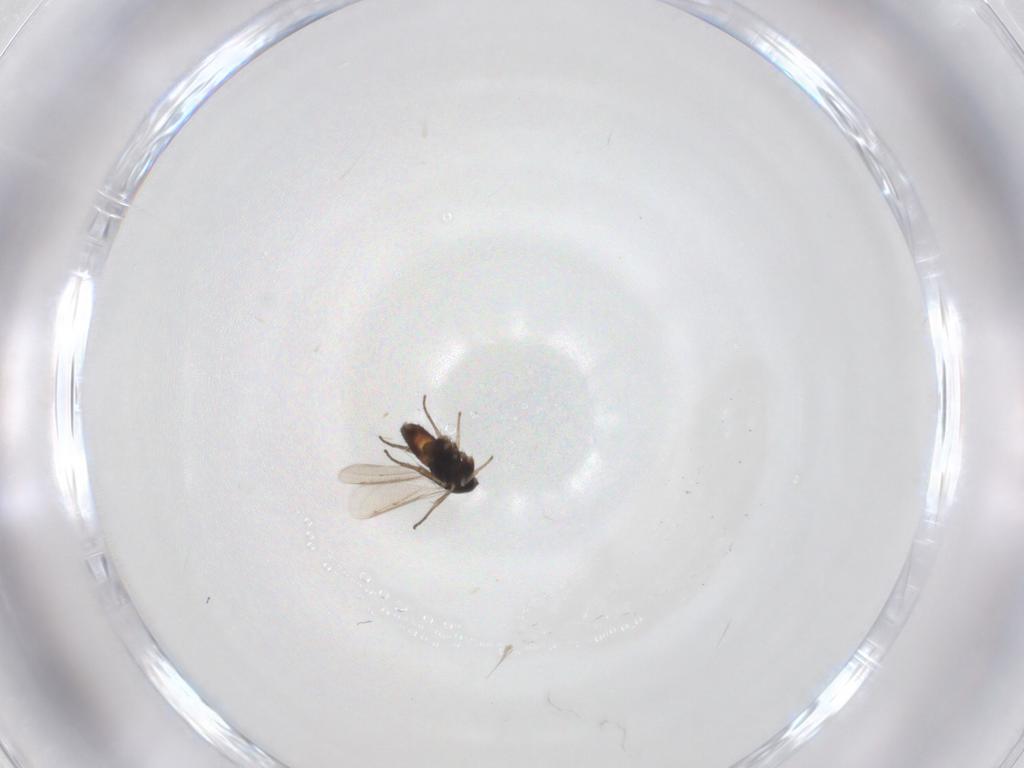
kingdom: Animalia
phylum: Arthropoda
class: Insecta
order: Hymenoptera
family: Eulophidae
